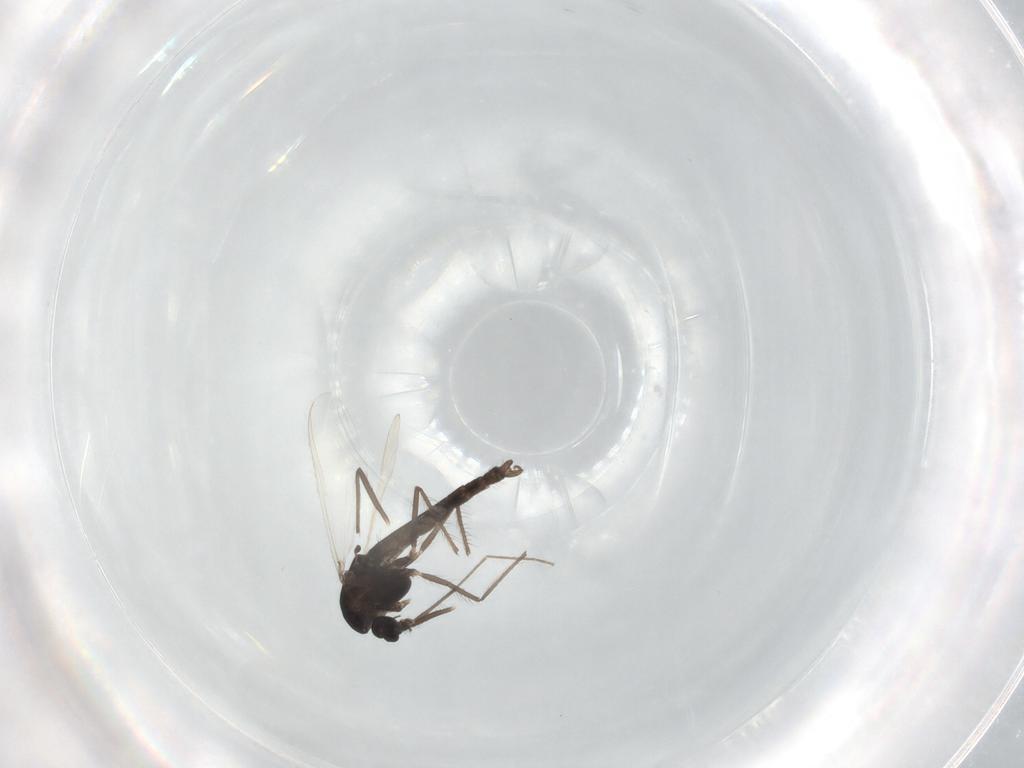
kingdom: Animalia
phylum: Arthropoda
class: Insecta
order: Diptera
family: Chironomidae
